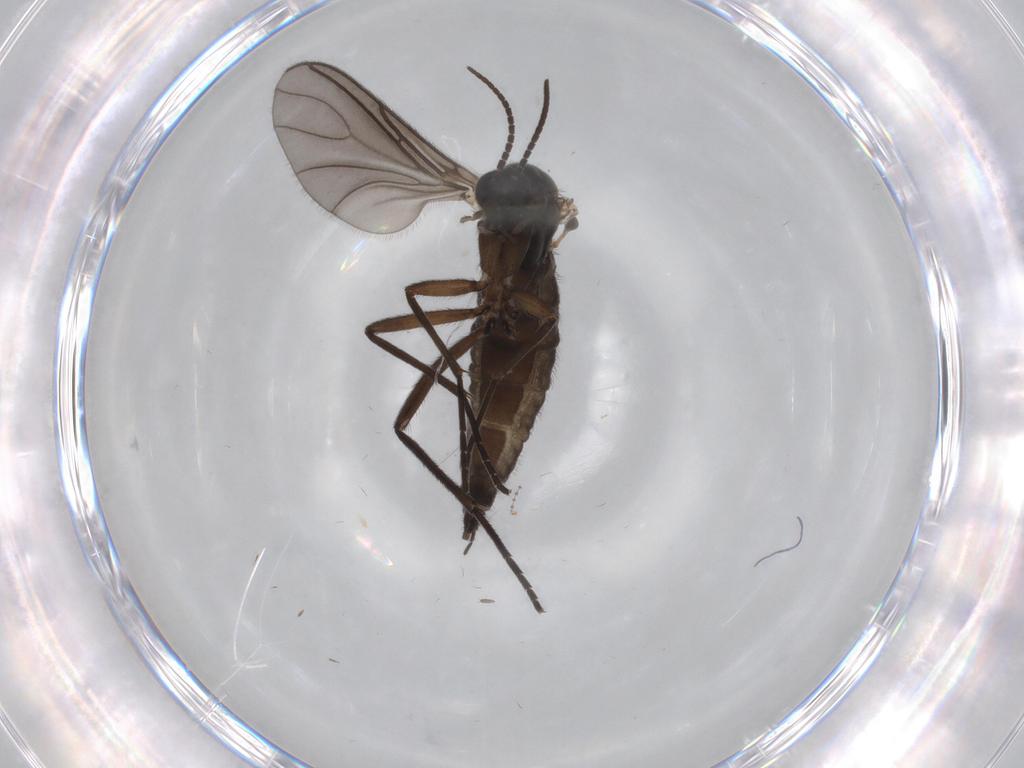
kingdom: Animalia
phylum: Arthropoda
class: Insecta
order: Diptera
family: Sciaridae
